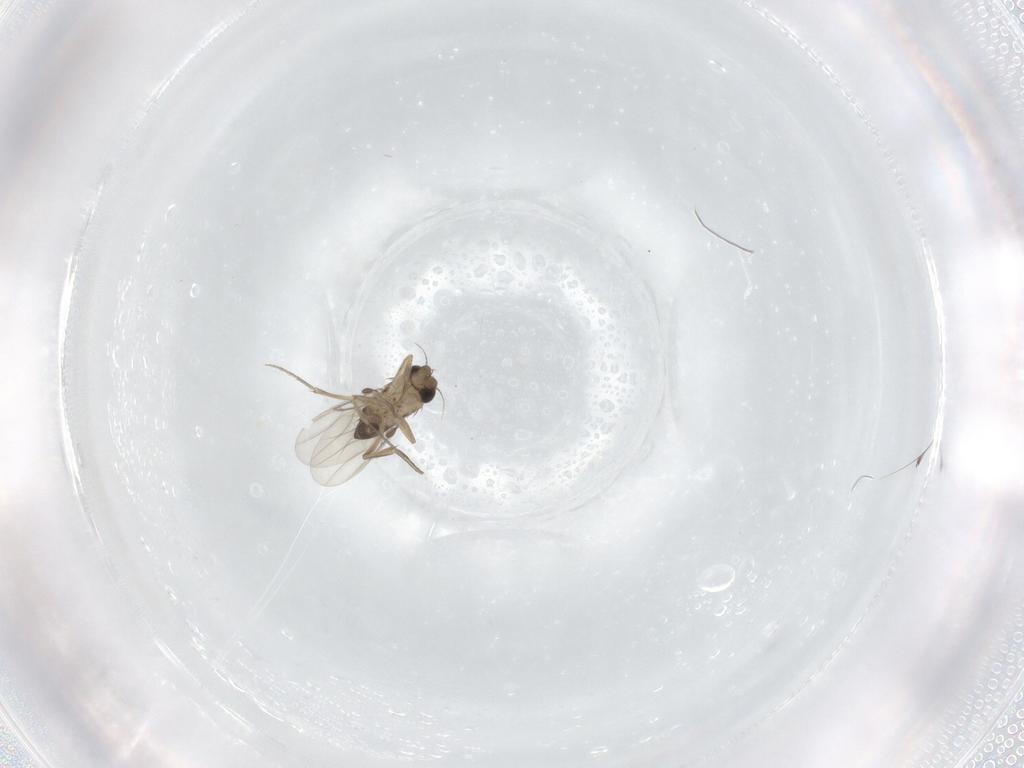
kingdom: Animalia
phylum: Arthropoda
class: Insecta
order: Diptera
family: Phoridae
